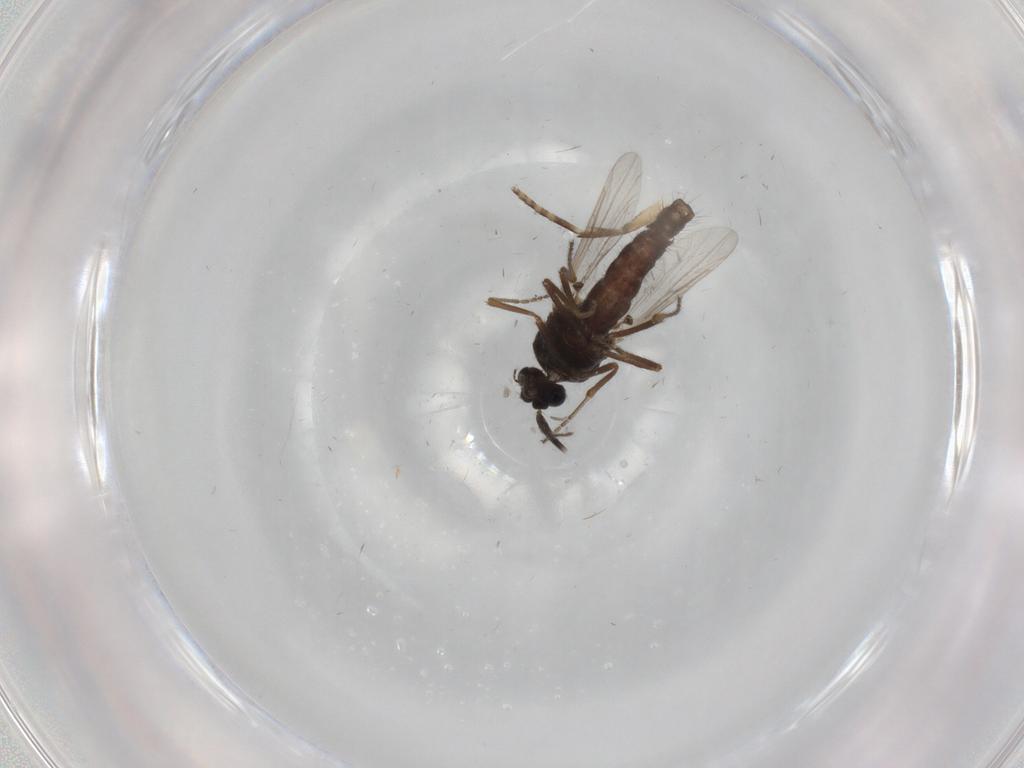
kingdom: Animalia
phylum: Arthropoda
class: Insecta
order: Diptera
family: Ceratopogonidae
